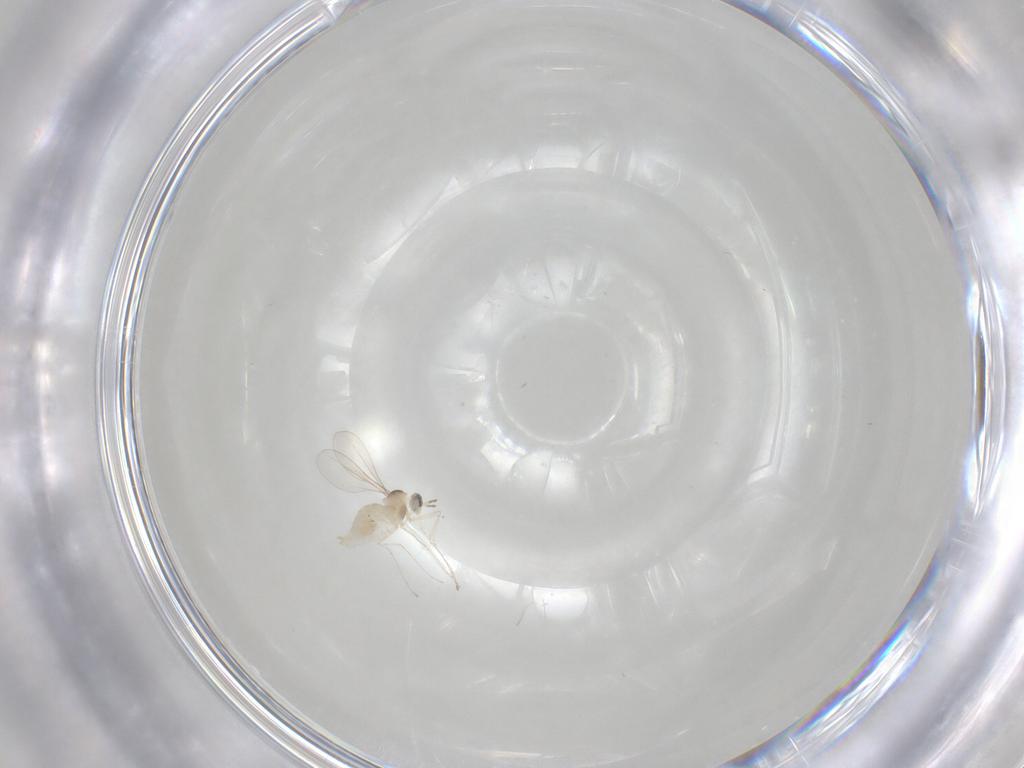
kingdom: Animalia
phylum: Arthropoda
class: Insecta
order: Diptera
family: Cecidomyiidae
